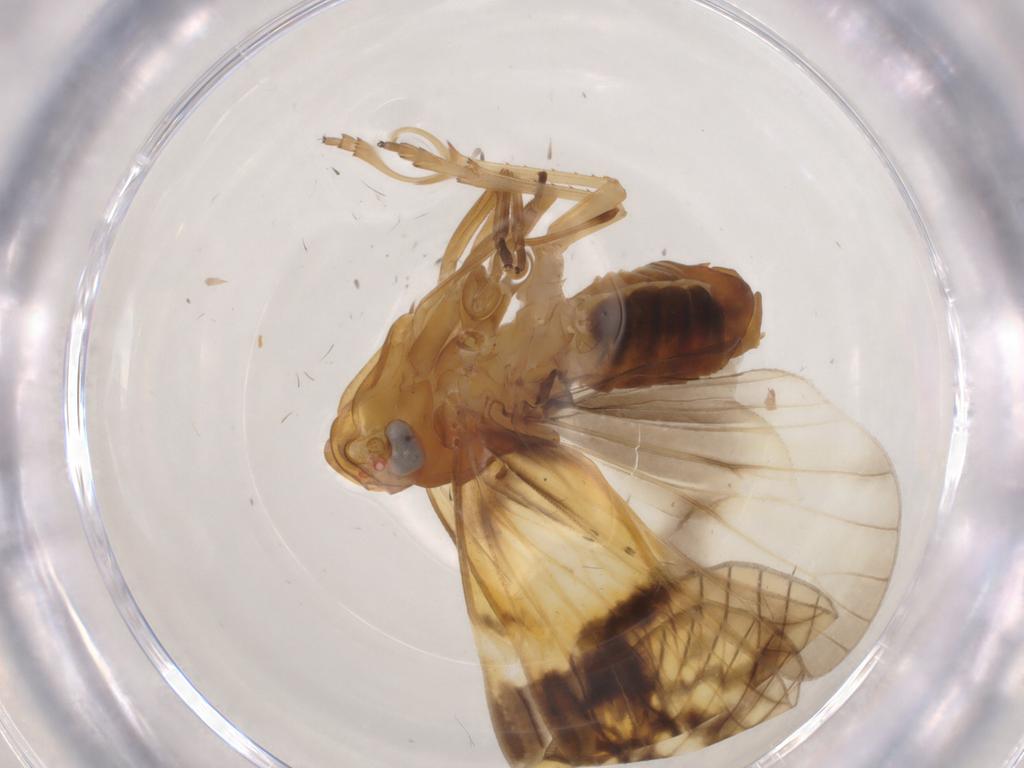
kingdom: Animalia
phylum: Arthropoda
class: Insecta
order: Hemiptera
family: Cixiidae
